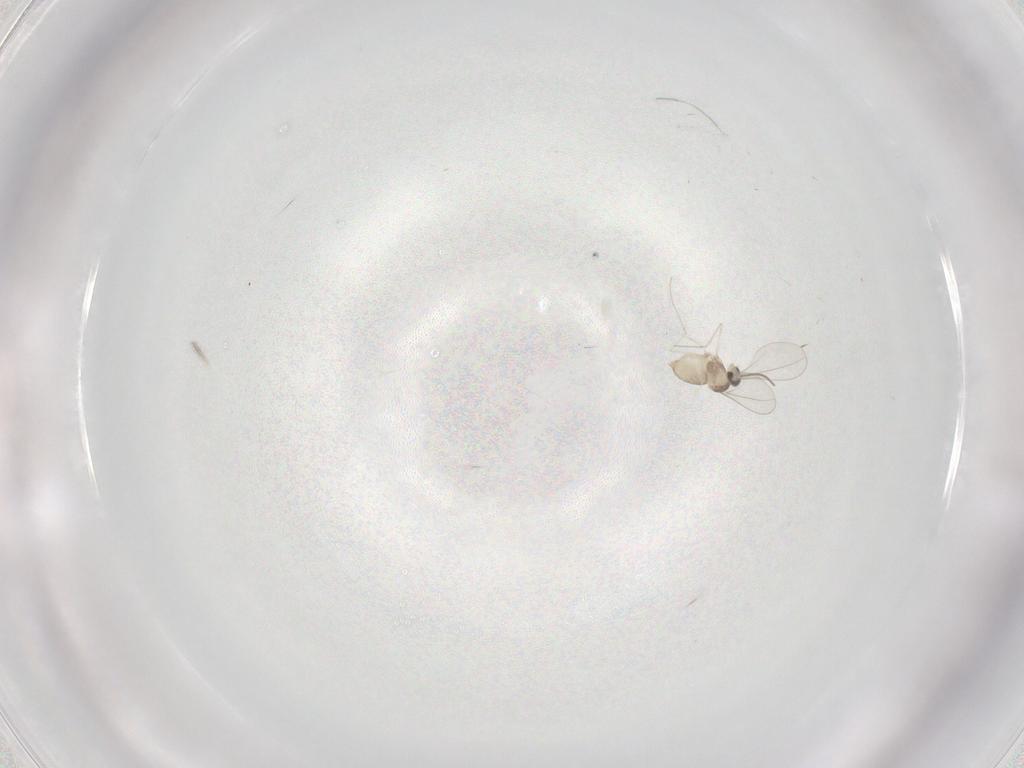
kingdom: Animalia
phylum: Arthropoda
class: Insecta
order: Diptera
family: Cecidomyiidae
